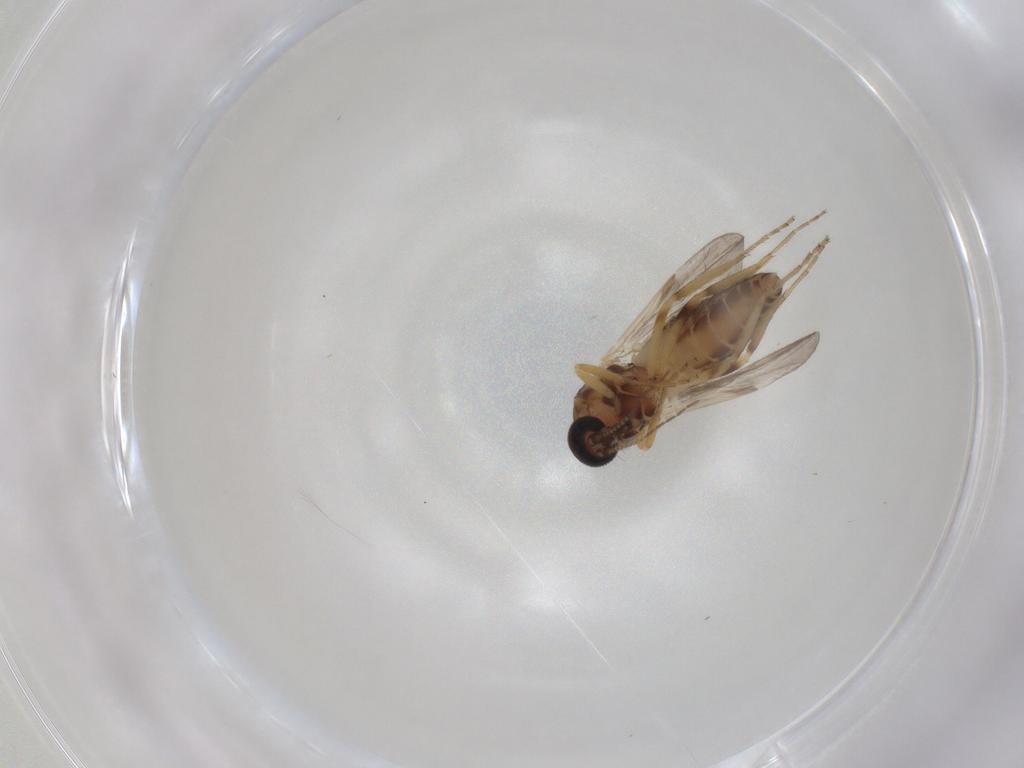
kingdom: Animalia
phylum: Arthropoda
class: Insecta
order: Diptera
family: Ceratopogonidae
